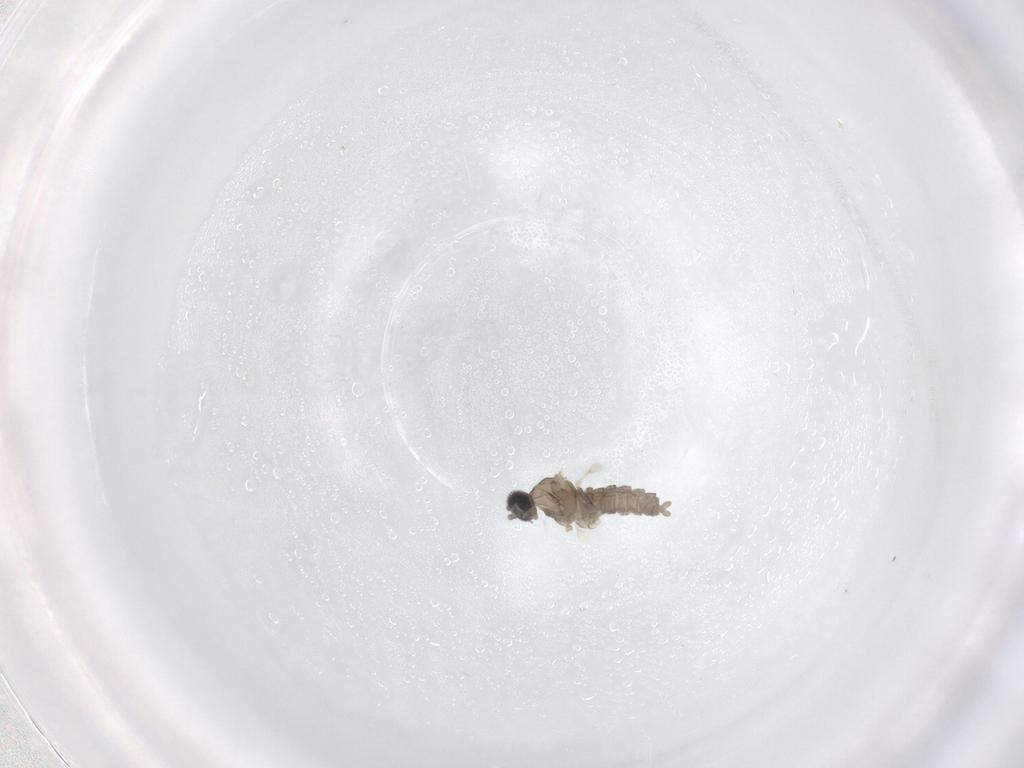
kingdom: Animalia
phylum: Arthropoda
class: Insecta
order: Diptera
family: Cecidomyiidae
